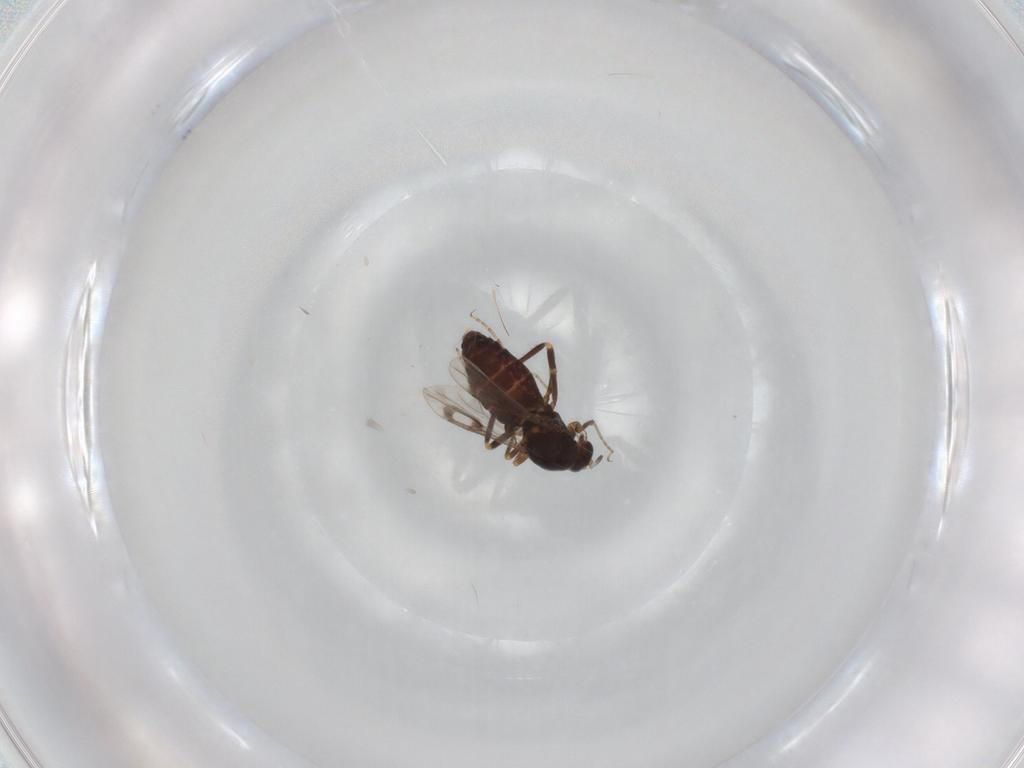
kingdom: Animalia
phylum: Arthropoda
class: Insecta
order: Diptera
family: Ceratopogonidae
